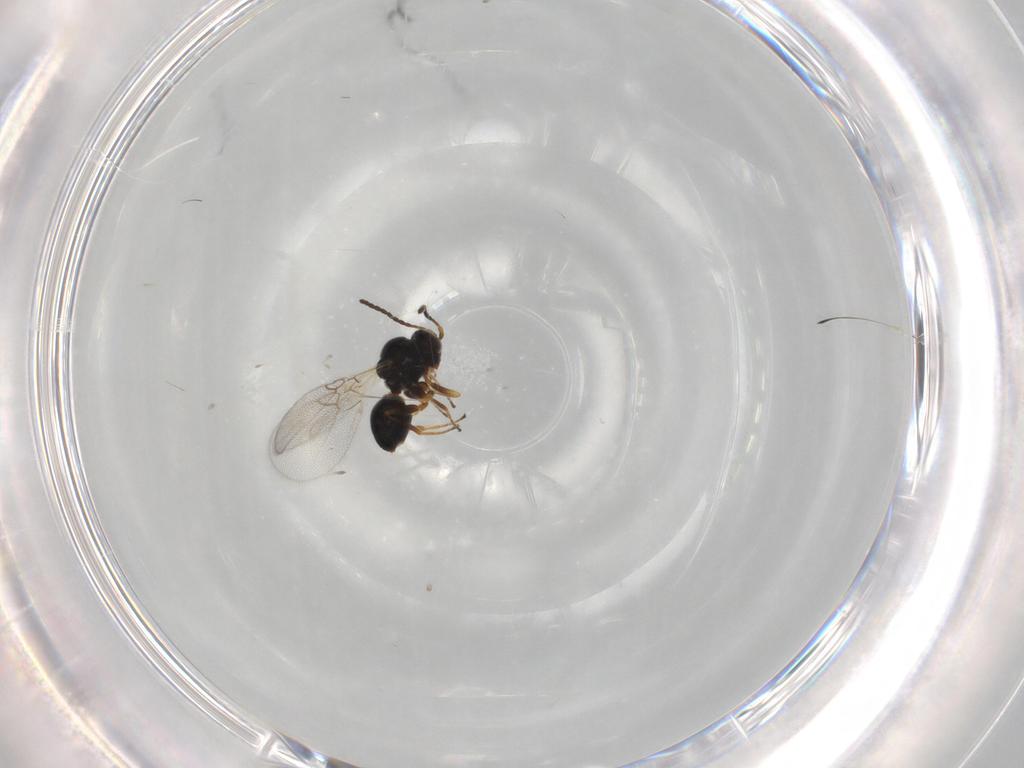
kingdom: Animalia
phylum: Arthropoda
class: Insecta
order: Hymenoptera
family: Figitidae
